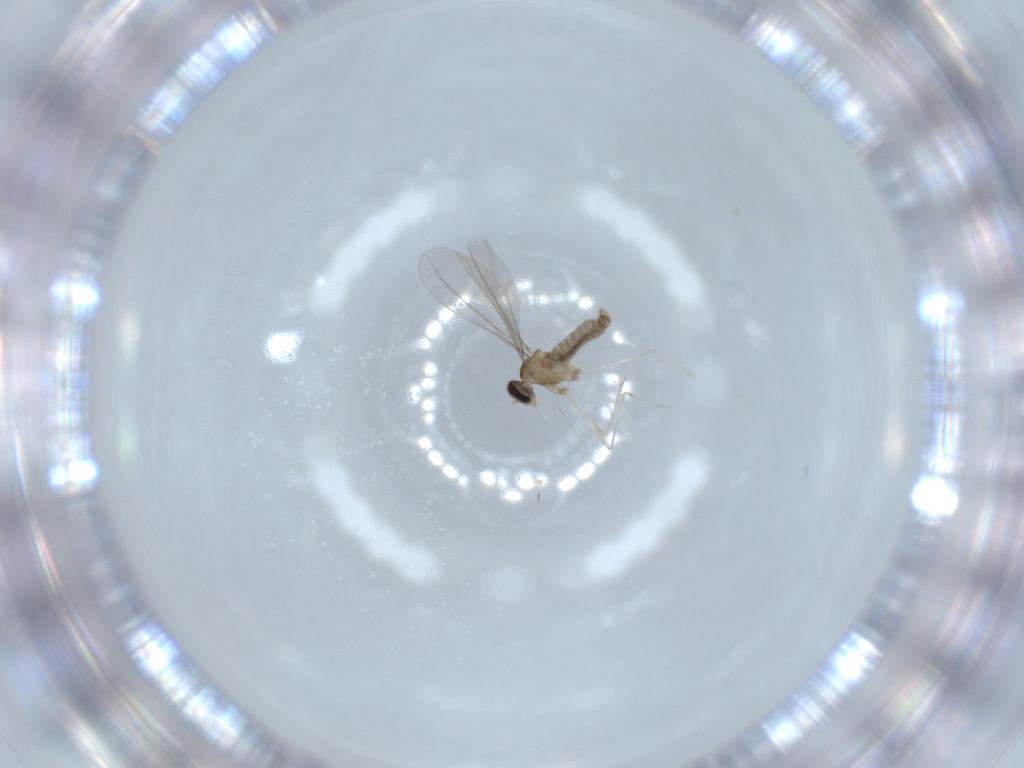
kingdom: Animalia
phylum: Arthropoda
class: Insecta
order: Diptera
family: Cecidomyiidae
